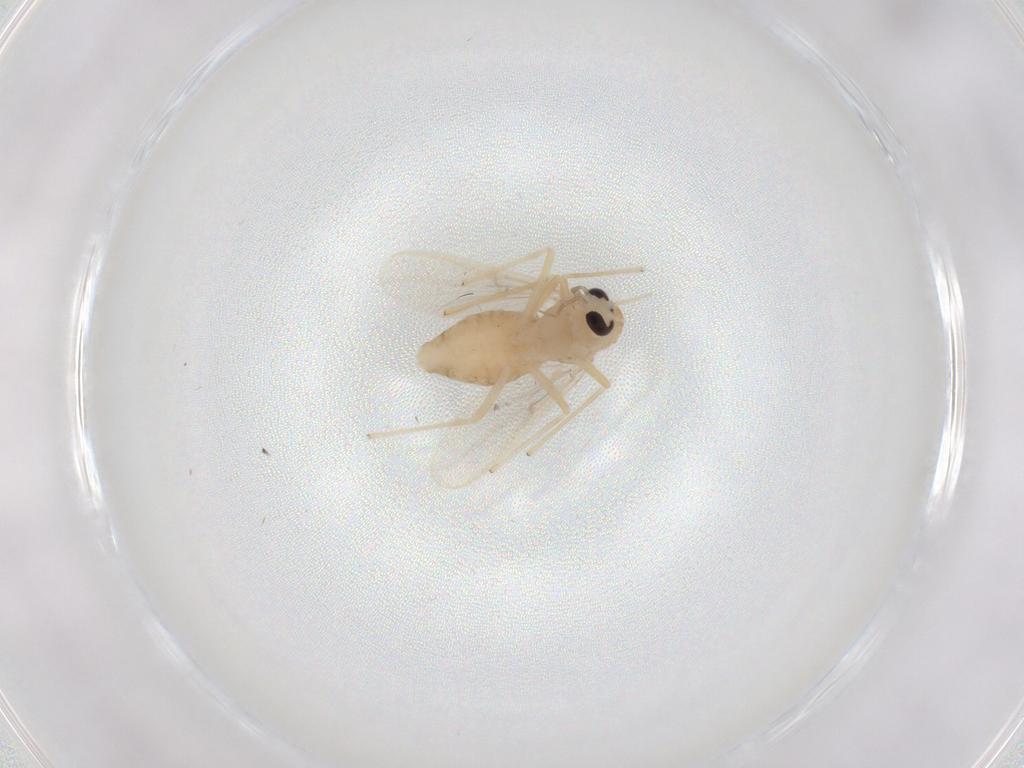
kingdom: Animalia
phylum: Arthropoda
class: Insecta
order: Diptera
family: Chironomidae
